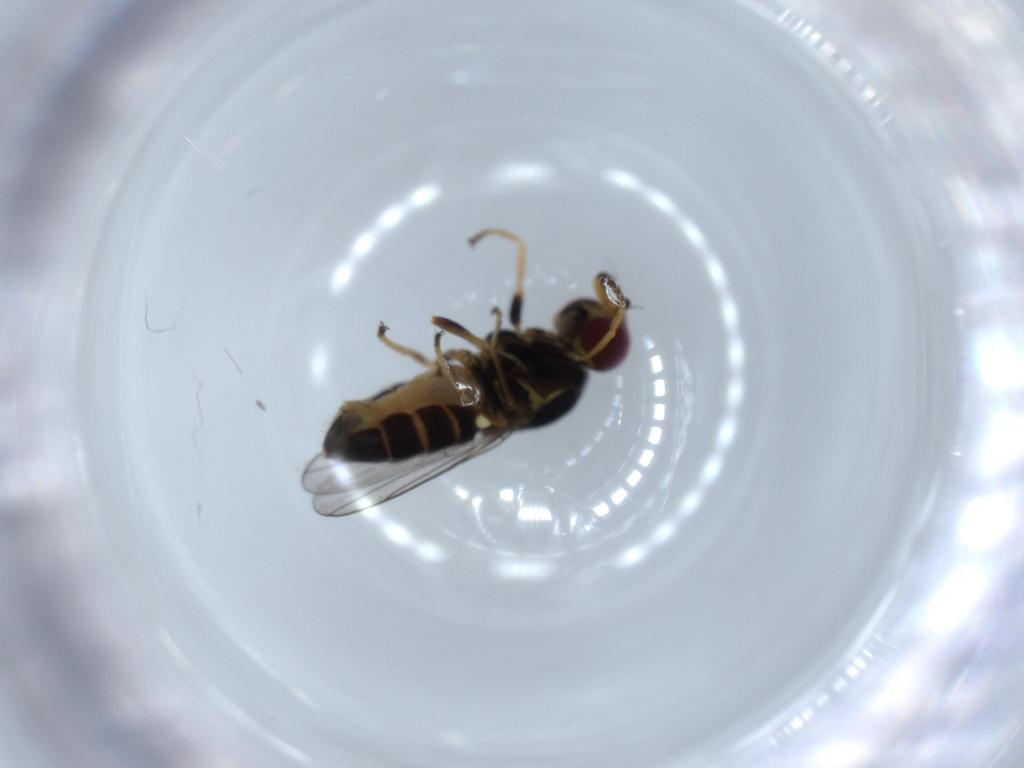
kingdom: Animalia
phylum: Arthropoda
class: Insecta
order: Diptera
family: Chloropidae
